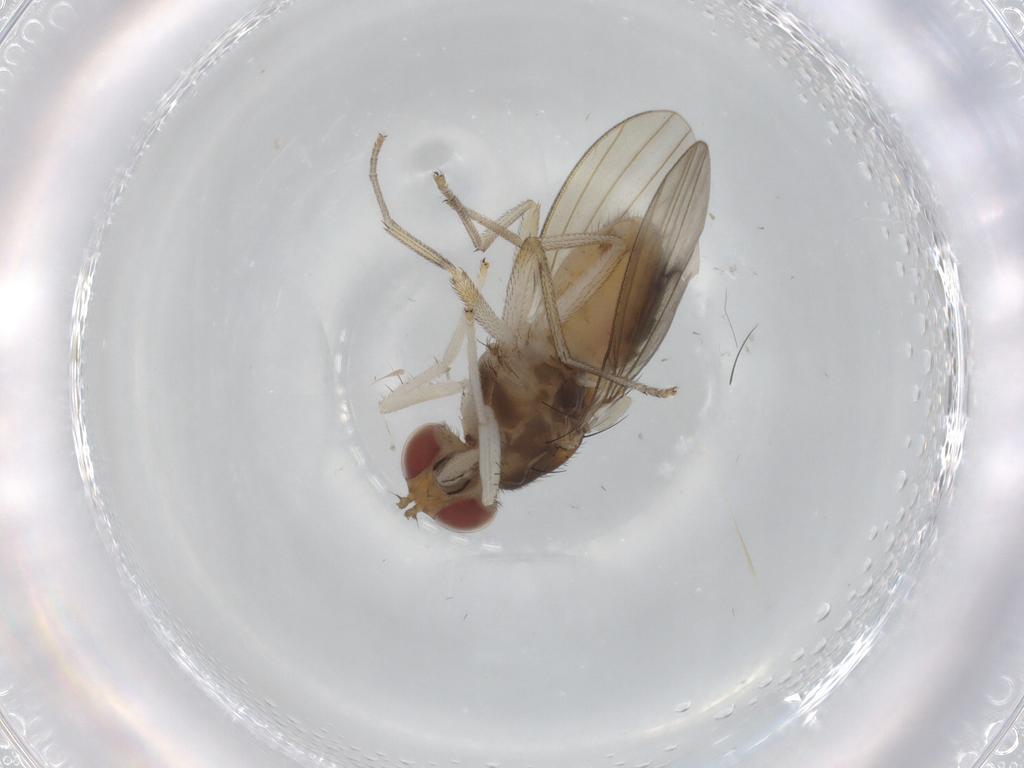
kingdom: Animalia
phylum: Arthropoda
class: Insecta
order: Diptera
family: Lauxaniidae
